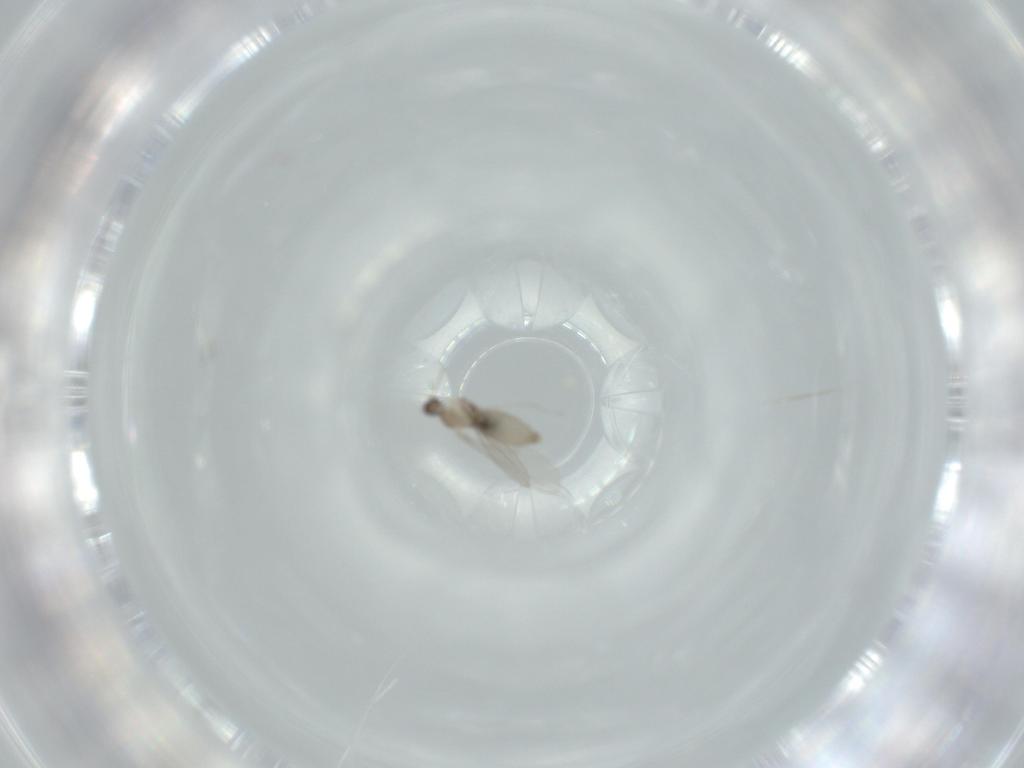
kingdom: Animalia
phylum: Arthropoda
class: Insecta
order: Diptera
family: Cecidomyiidae
